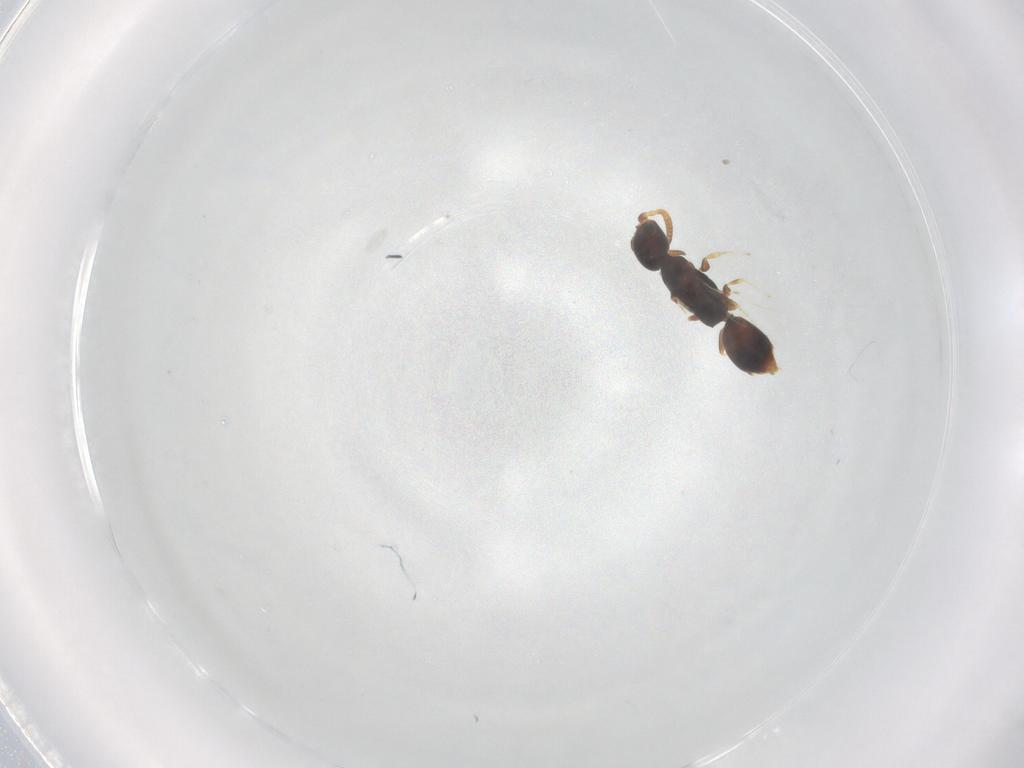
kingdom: Animalia
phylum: Arthropoda
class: Insecta
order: Hymenoptera
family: Bethylidae
